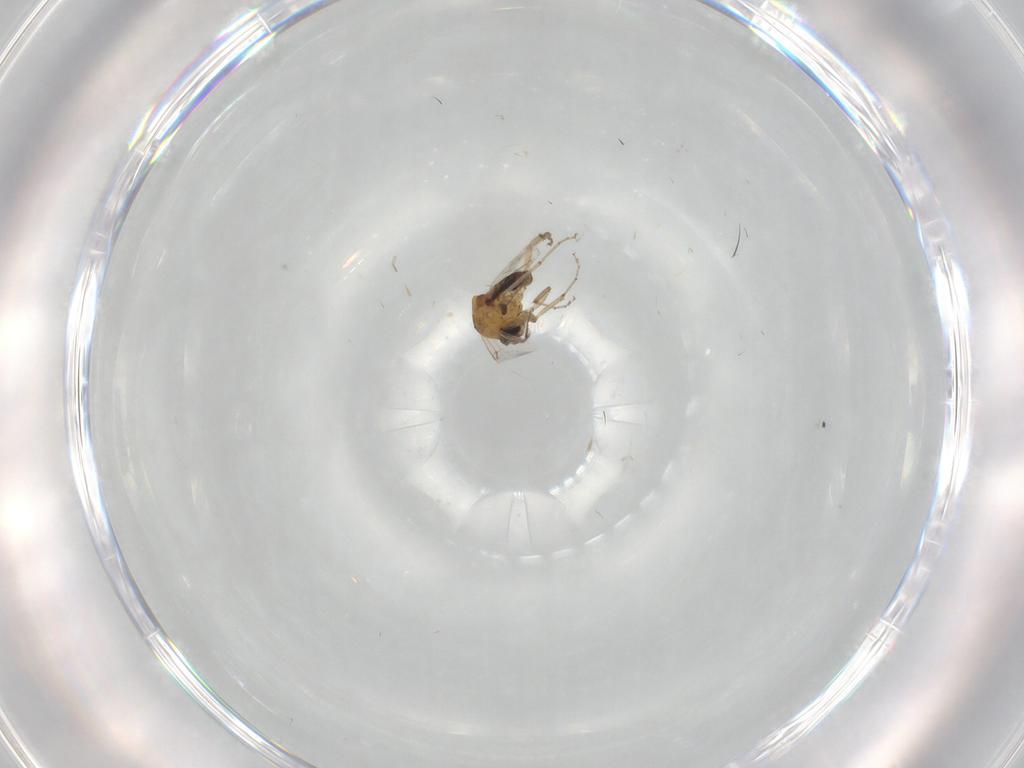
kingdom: Animalia
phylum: Arthropoda
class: Insecta
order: Diptera
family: Ceratopogonidae
